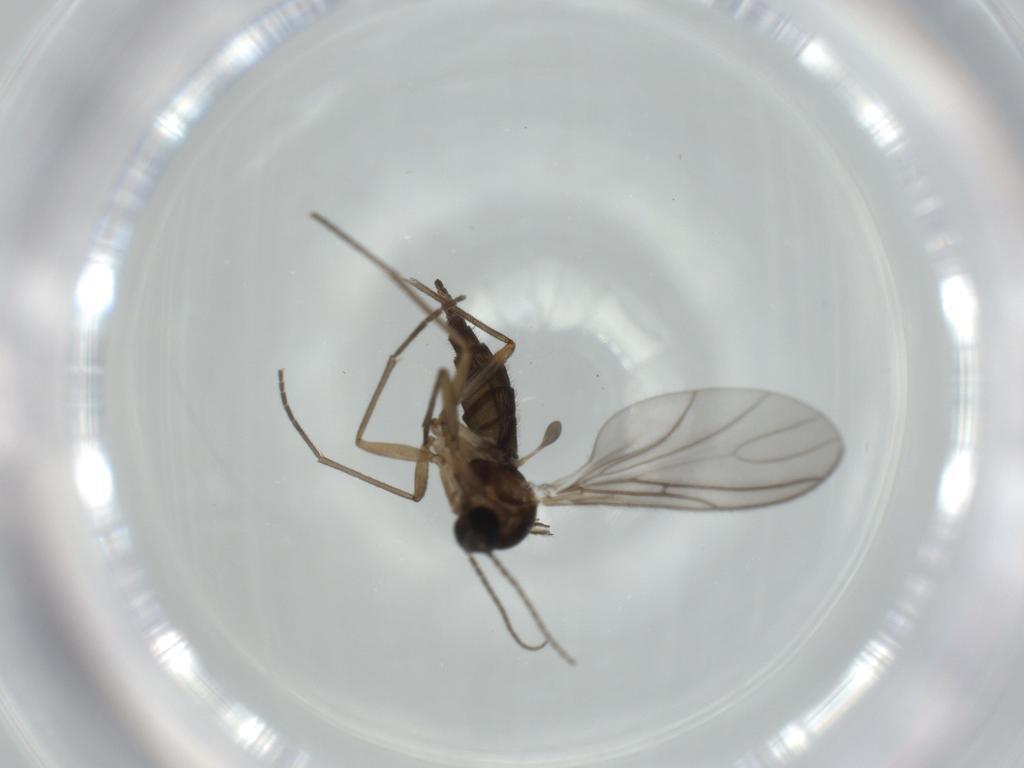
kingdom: Animalia
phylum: Arthropoda
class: Insecta
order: Diptera
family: Sciaridae
